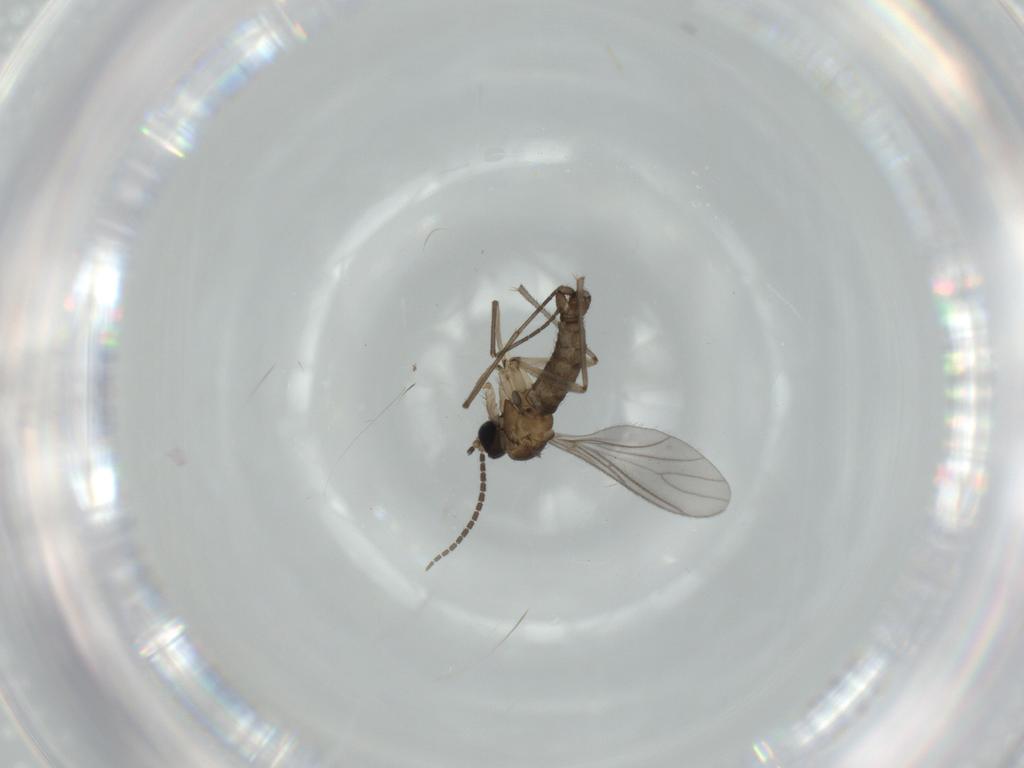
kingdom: Animalia
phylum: Arthropoda
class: Insecta
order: Diptera
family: Sciaridae
